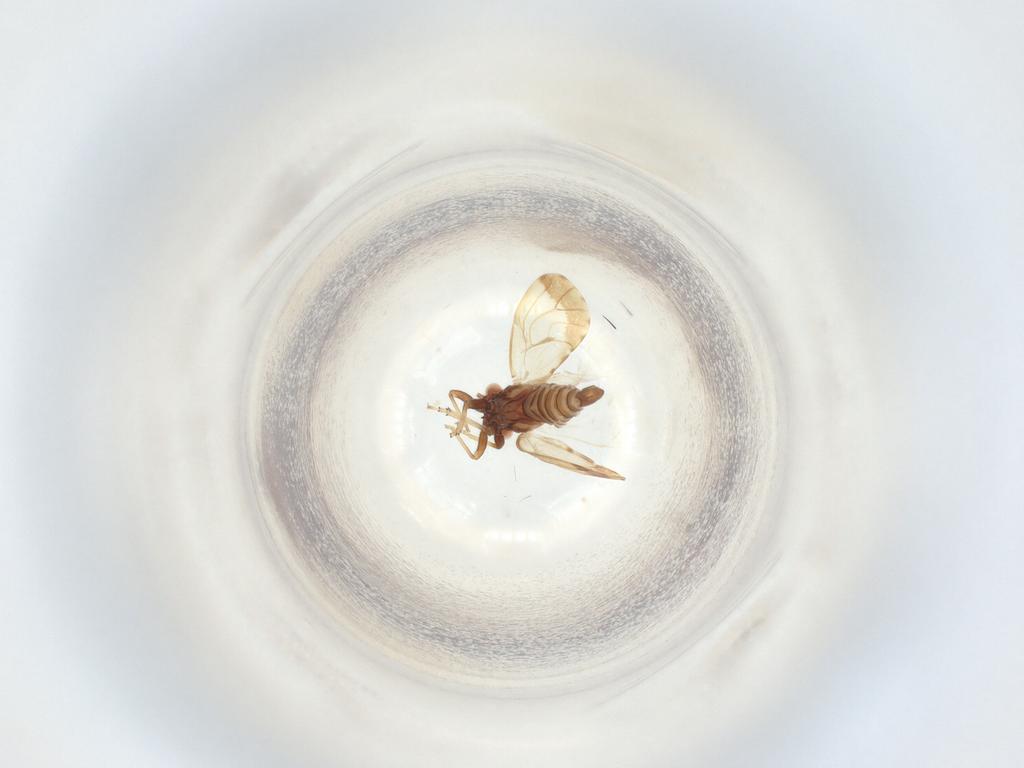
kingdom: Animalia
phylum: Arthropoda
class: Insecta
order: Hemiptera
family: Psyllidae
